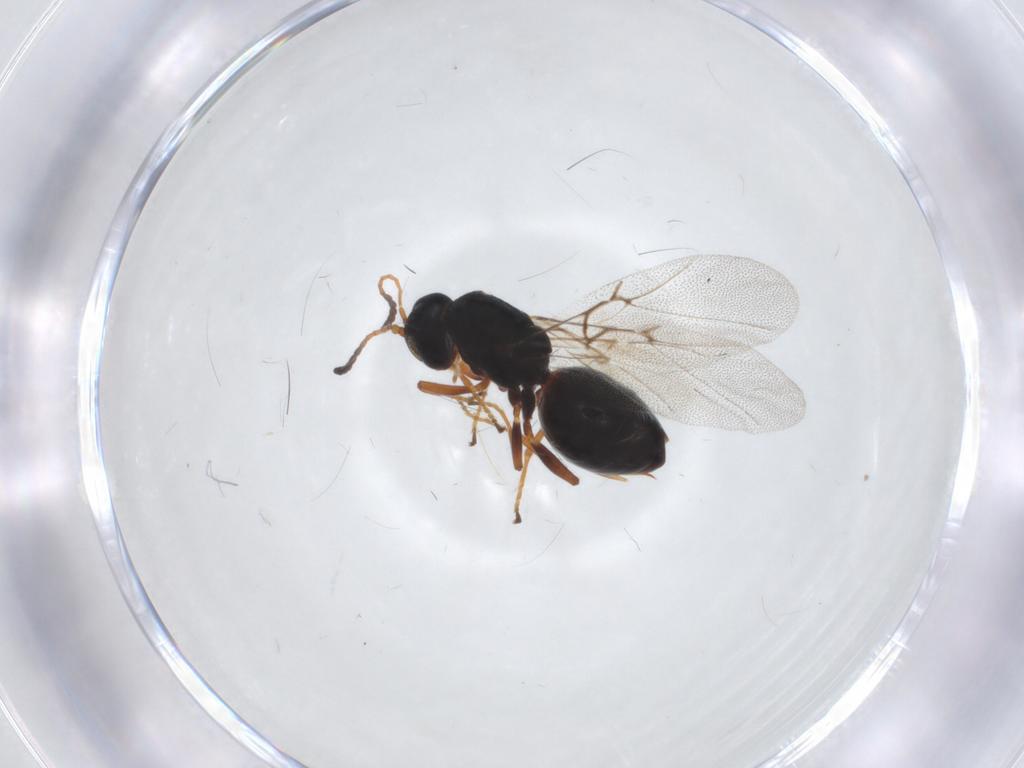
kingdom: Animalia
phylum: Arthropoda
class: Insecta
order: Hymenoptera
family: Cynipidae
